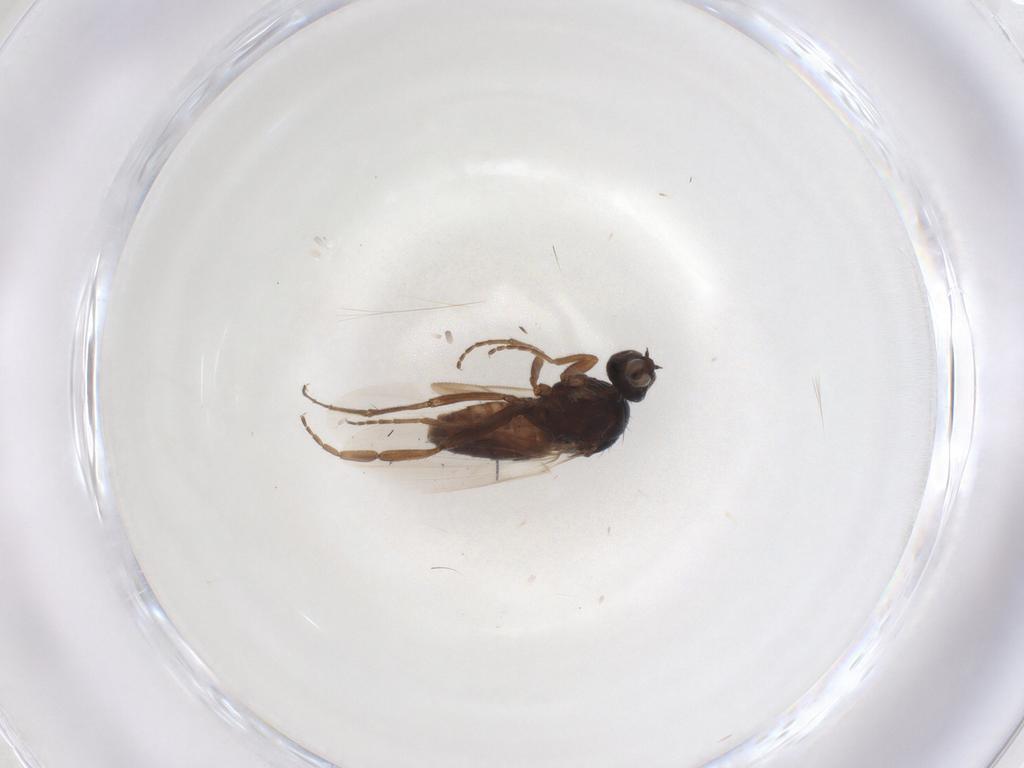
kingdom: Animalia
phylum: Arthropoda
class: Insecta
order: Diptera
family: Platypezidae
